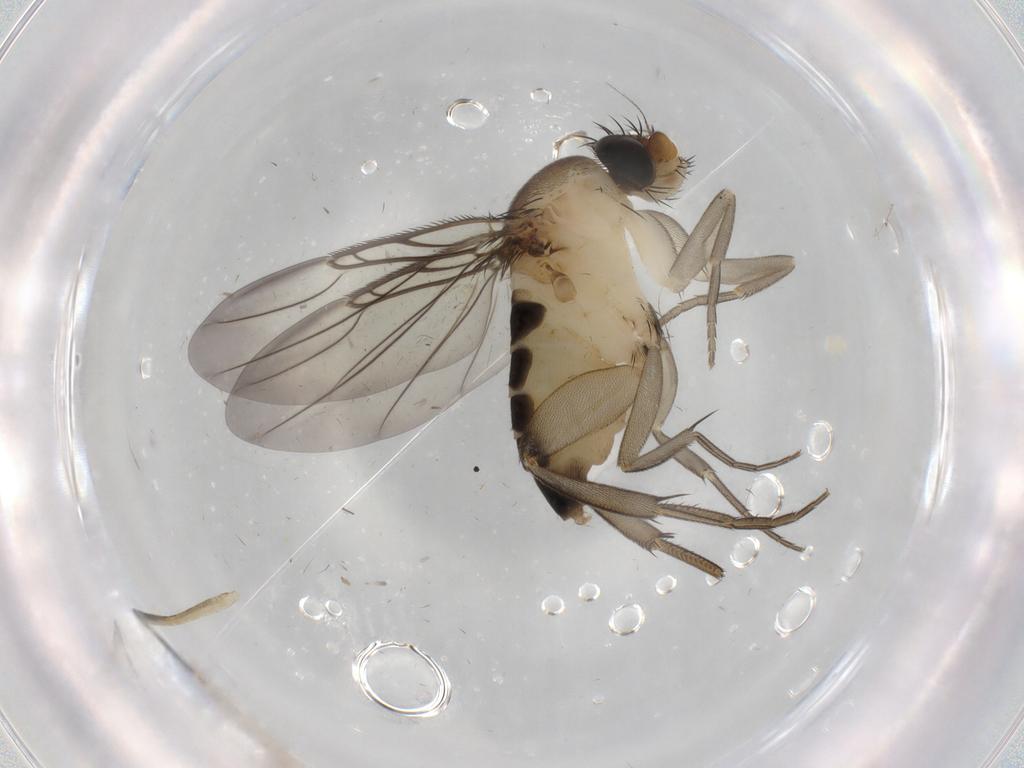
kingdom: Animalia
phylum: Arthropoda
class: Insecta
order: Diptera
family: Phoridae
